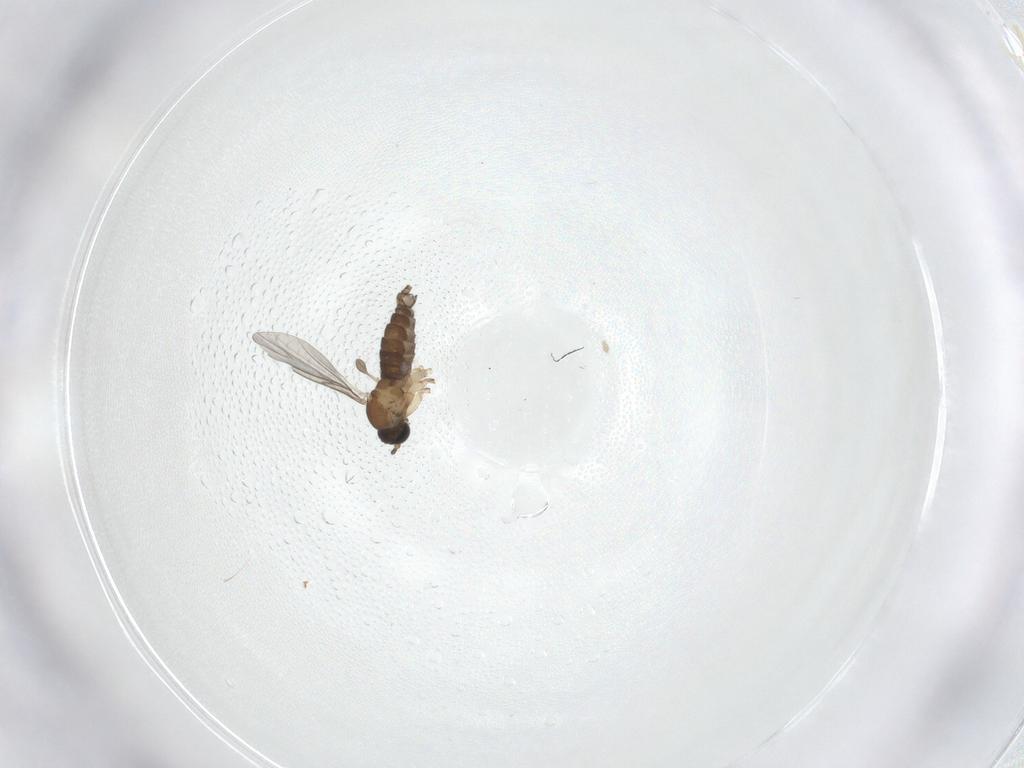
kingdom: Animalia
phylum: Arthropoda
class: Insecta
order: Diptera
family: Sciaridae
